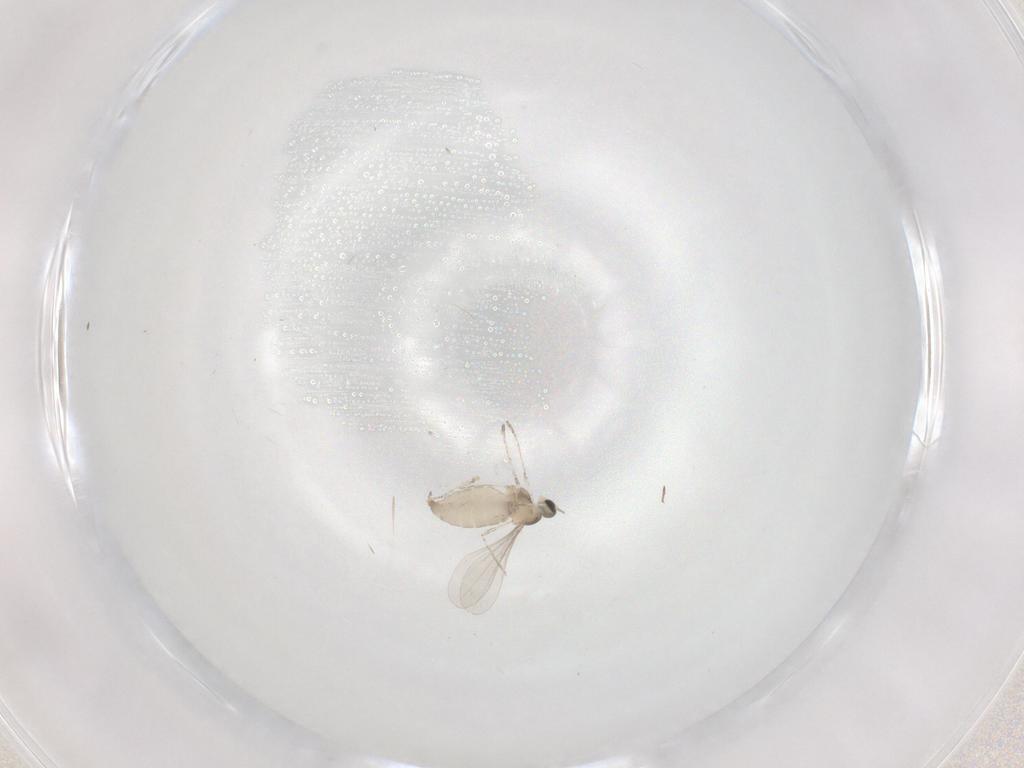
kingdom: Animalia
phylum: Arthropoda
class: Insecta
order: Diptera
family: Cecidomyiidae
